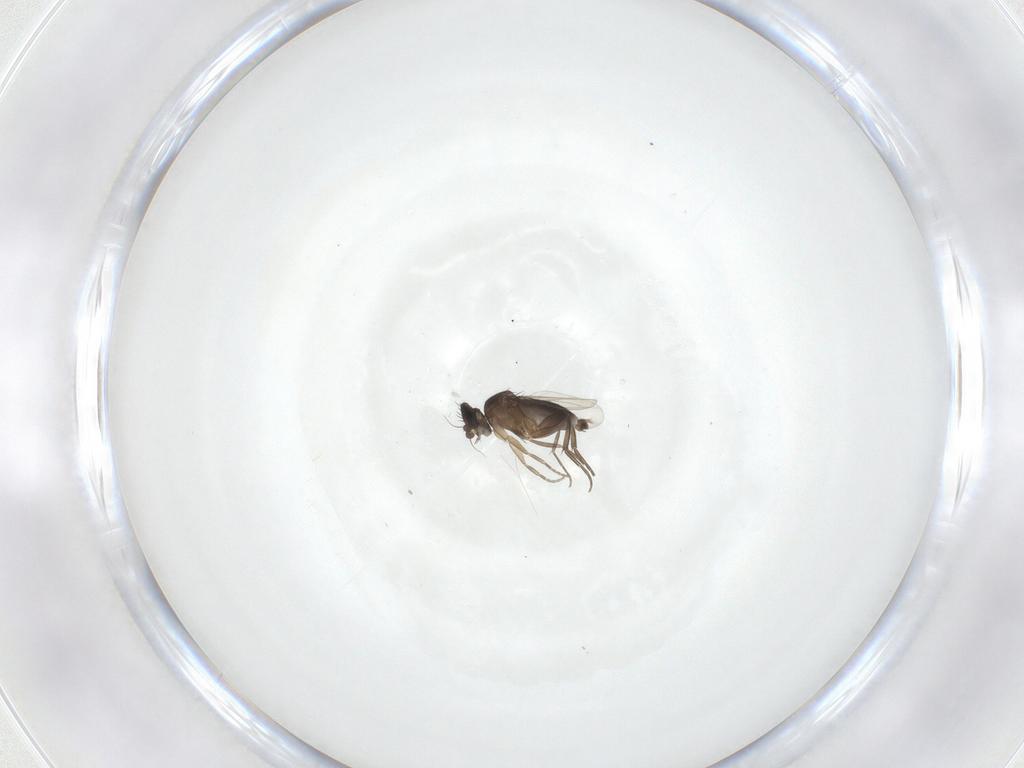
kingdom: Animalia
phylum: Arthropoda
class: Insecta
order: Diptera
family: Phoridae
